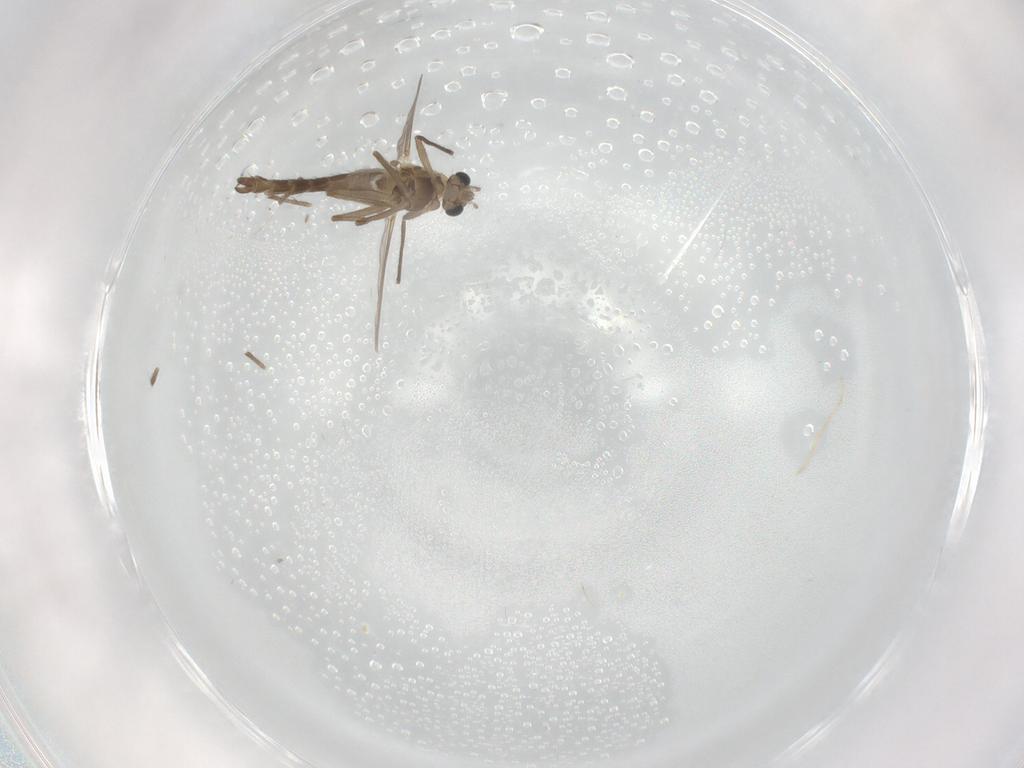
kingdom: Animalia
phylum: Arthropoda
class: Insecta
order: Diptera
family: Chironomidae
